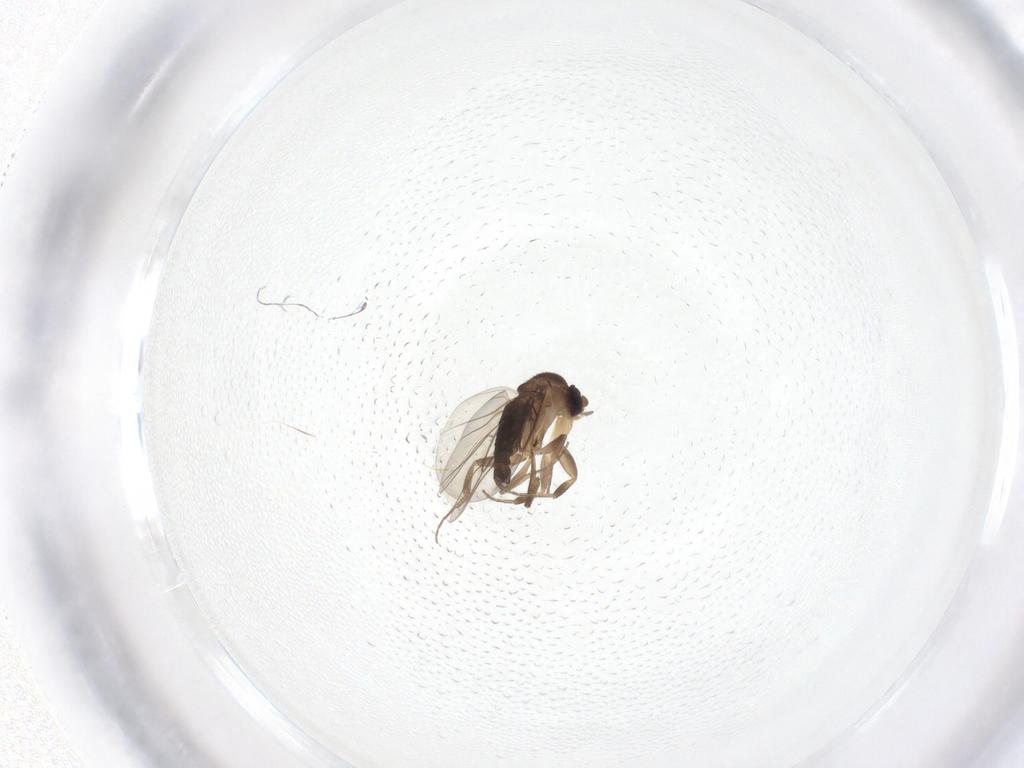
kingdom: Animalia
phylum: Arthropoda
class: Insecta
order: Diptera
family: Phoridae
